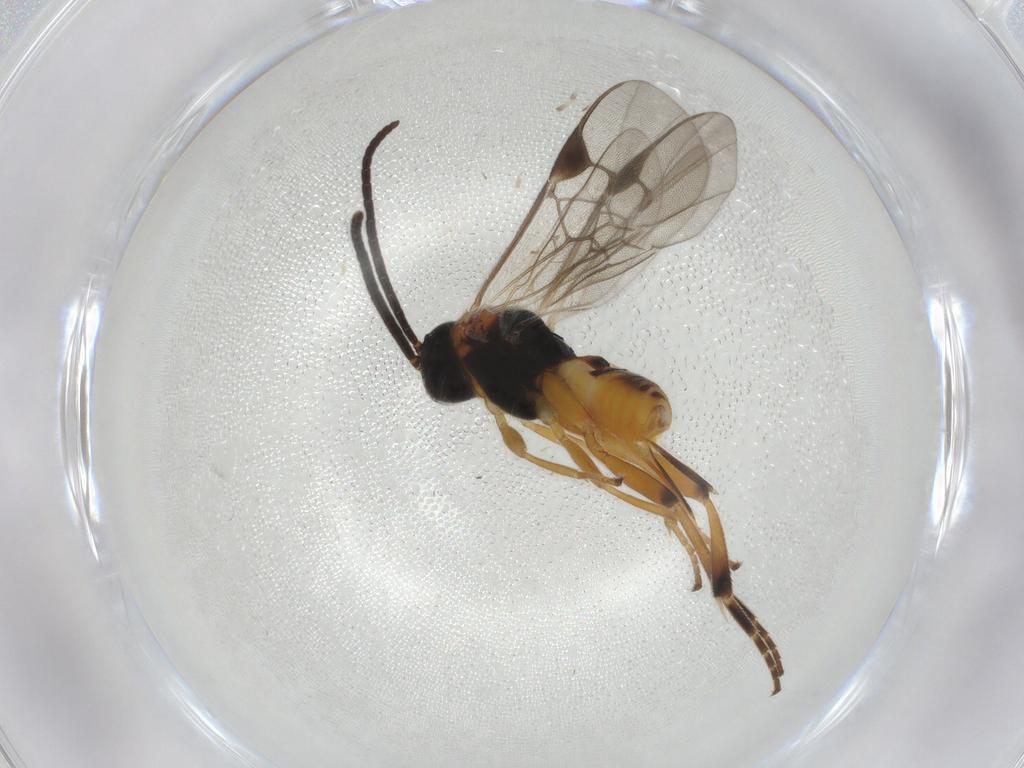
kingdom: Animalia
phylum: Arthropoda
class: Insecta
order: Hymenoptera
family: Braconidae
